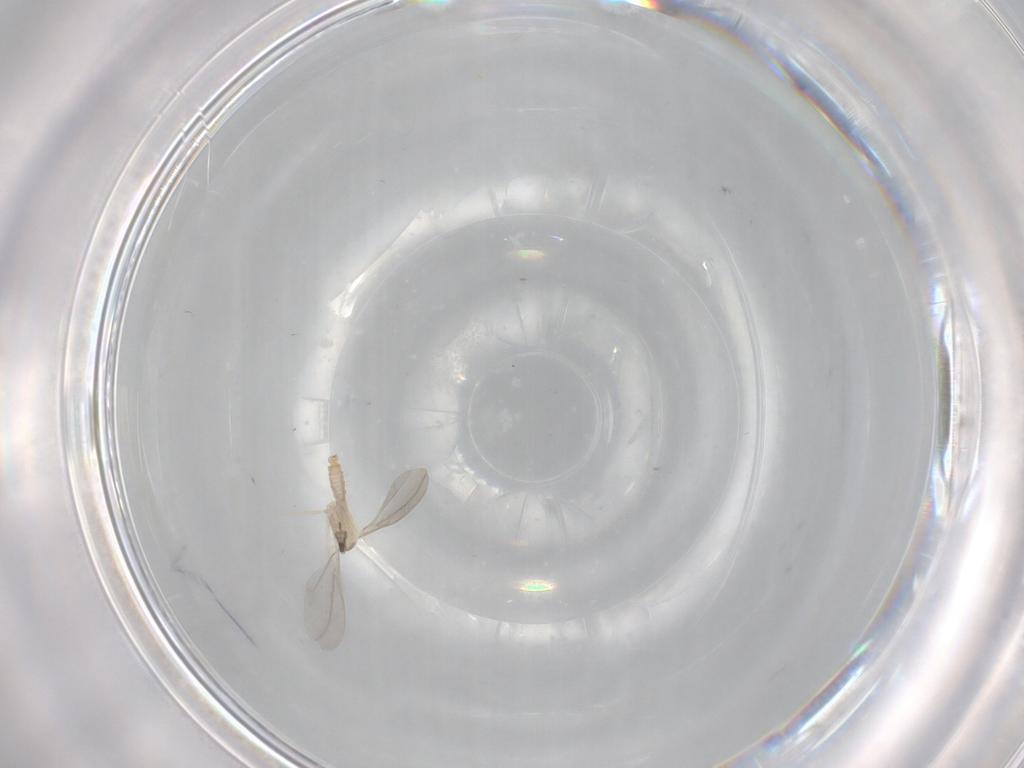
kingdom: Animalia
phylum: Arthropoda
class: Insecta
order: Diptera
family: Cecidomyiidae
